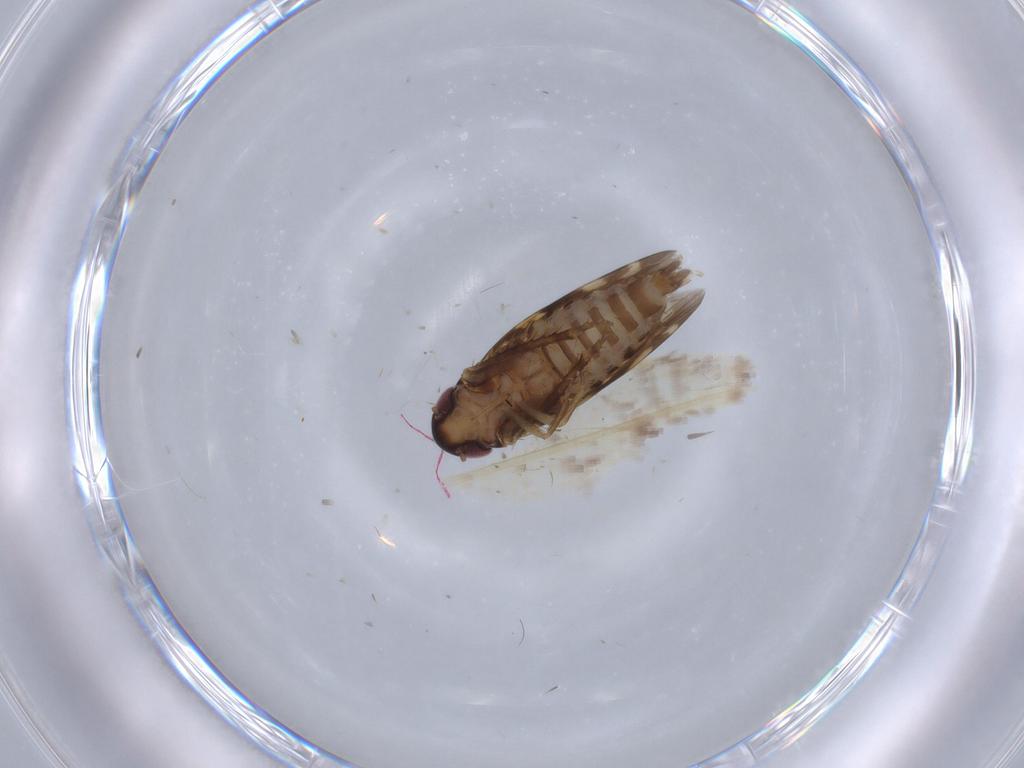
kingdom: Animalia
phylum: Arthropoda
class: Insecta
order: Hemiptera
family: Cicadellidae
